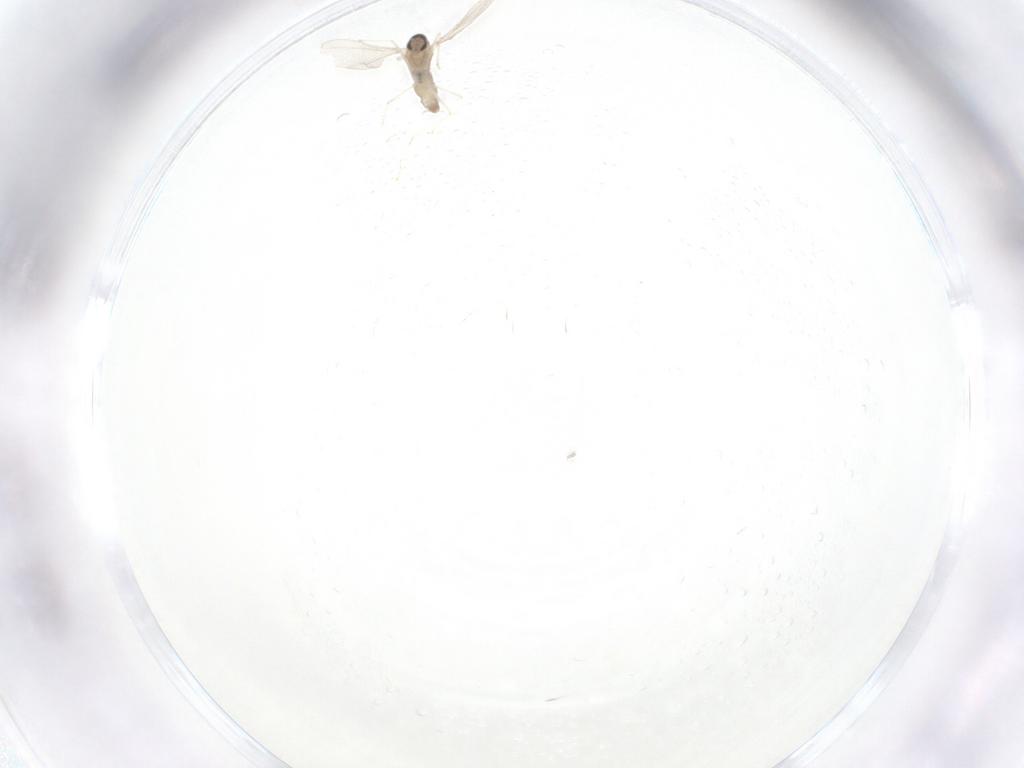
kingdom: Animalia
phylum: Arthropoda
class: Insecta
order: Diptera
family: Cecidomyiidae
